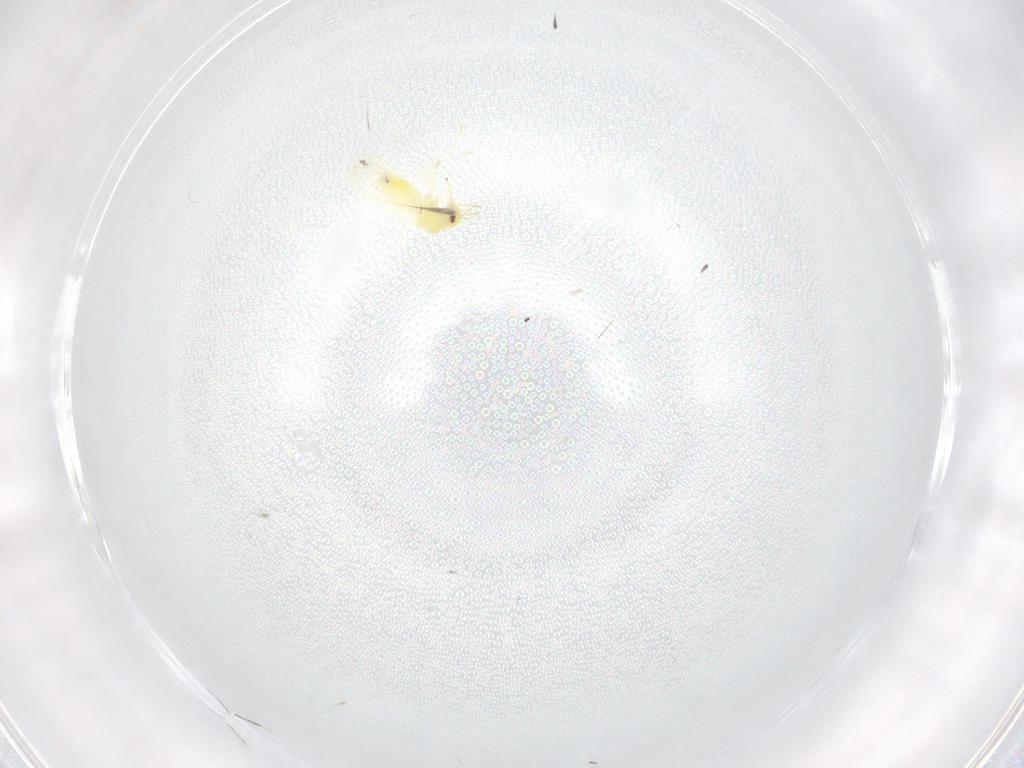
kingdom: Animalia
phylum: Arthropoda
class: Insecta
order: Hemiptera
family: Aleyrodidae
